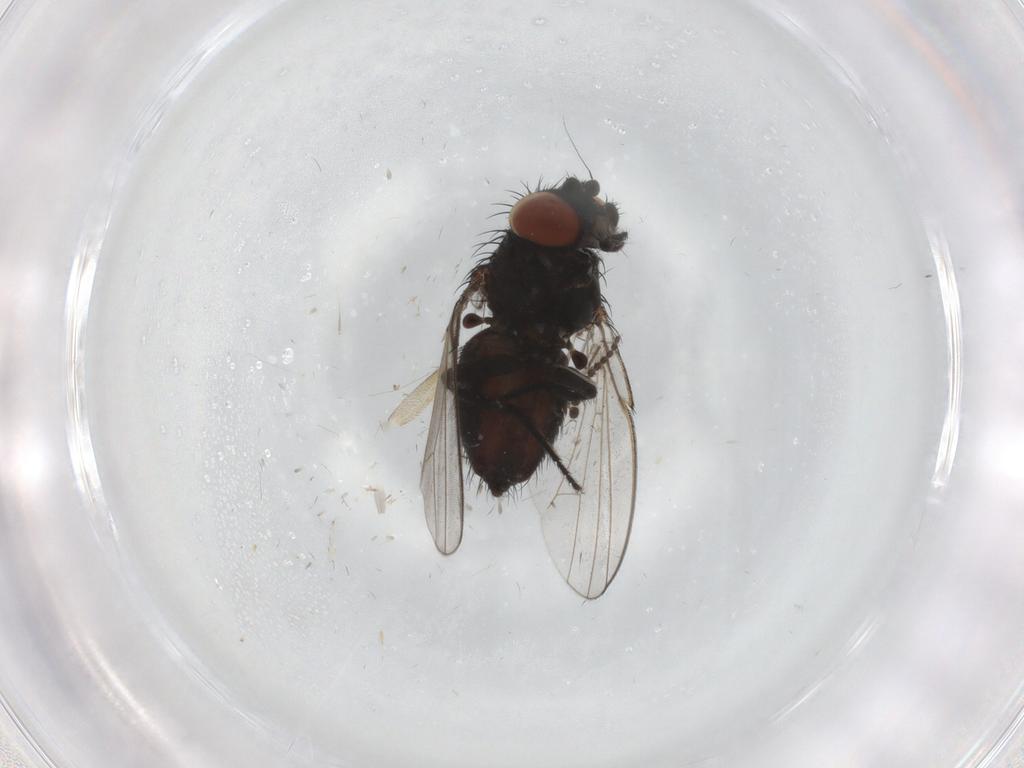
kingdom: Animalia
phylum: Arthropoda
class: Insecta
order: Diptera
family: Milichiidae
